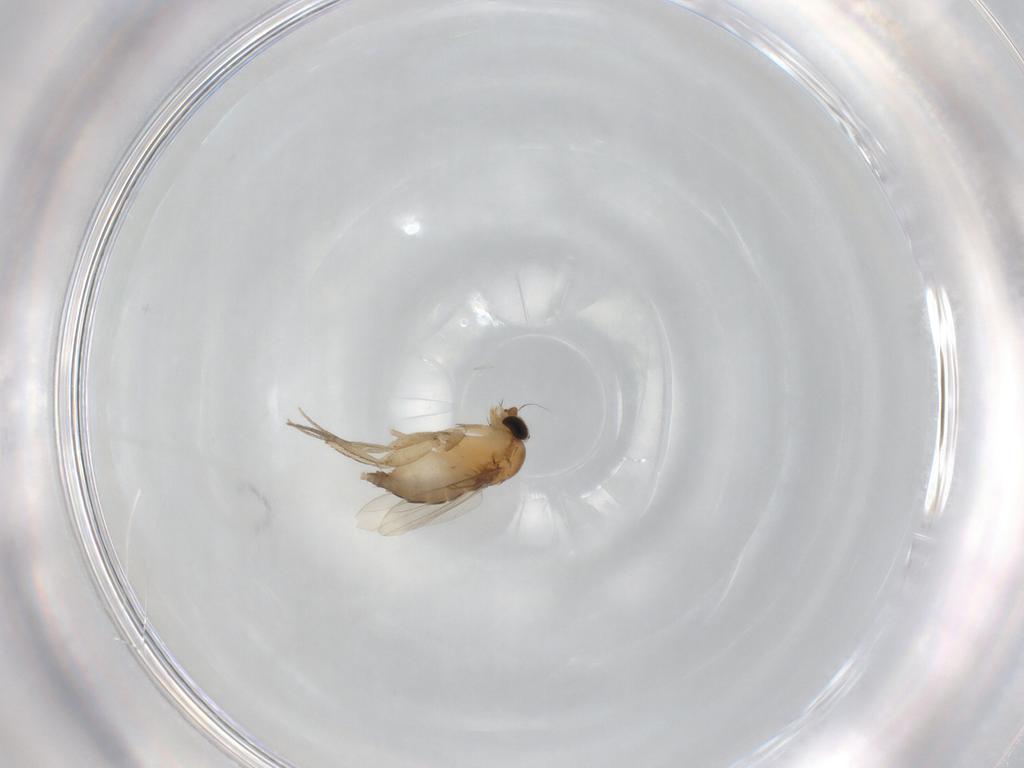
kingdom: Animalia
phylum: Arthropoda
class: Insecta
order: Diptera
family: Phoridae
